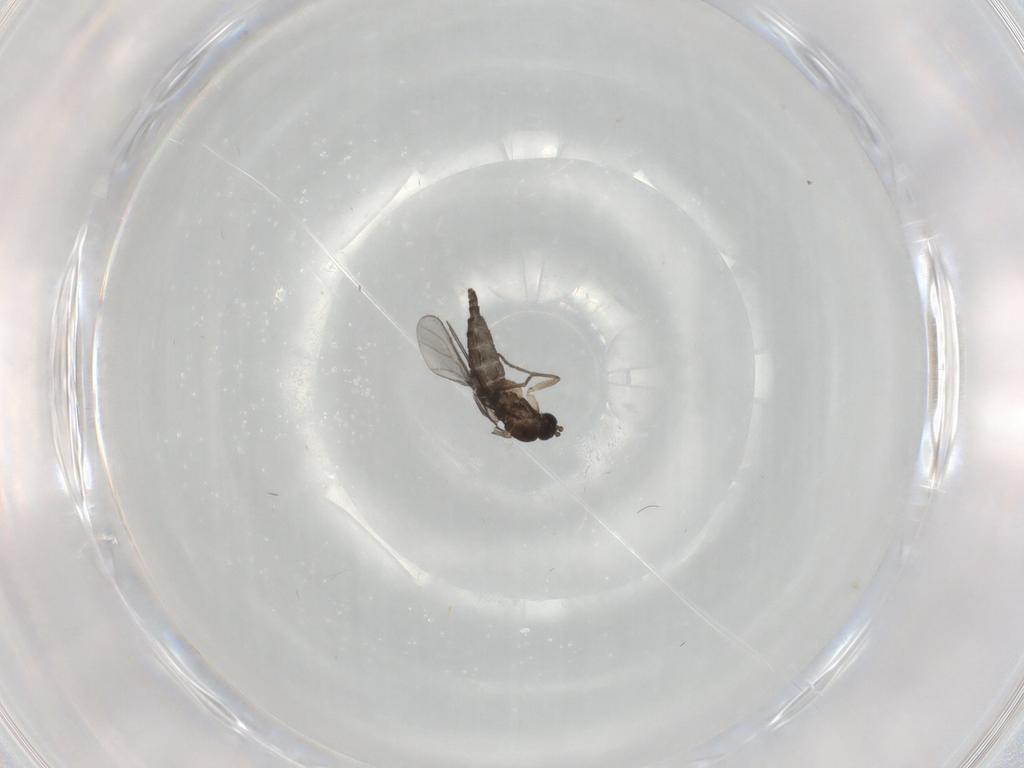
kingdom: Animalia
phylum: Arthropoda
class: Insecta
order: Diptera
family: Sciaridae
